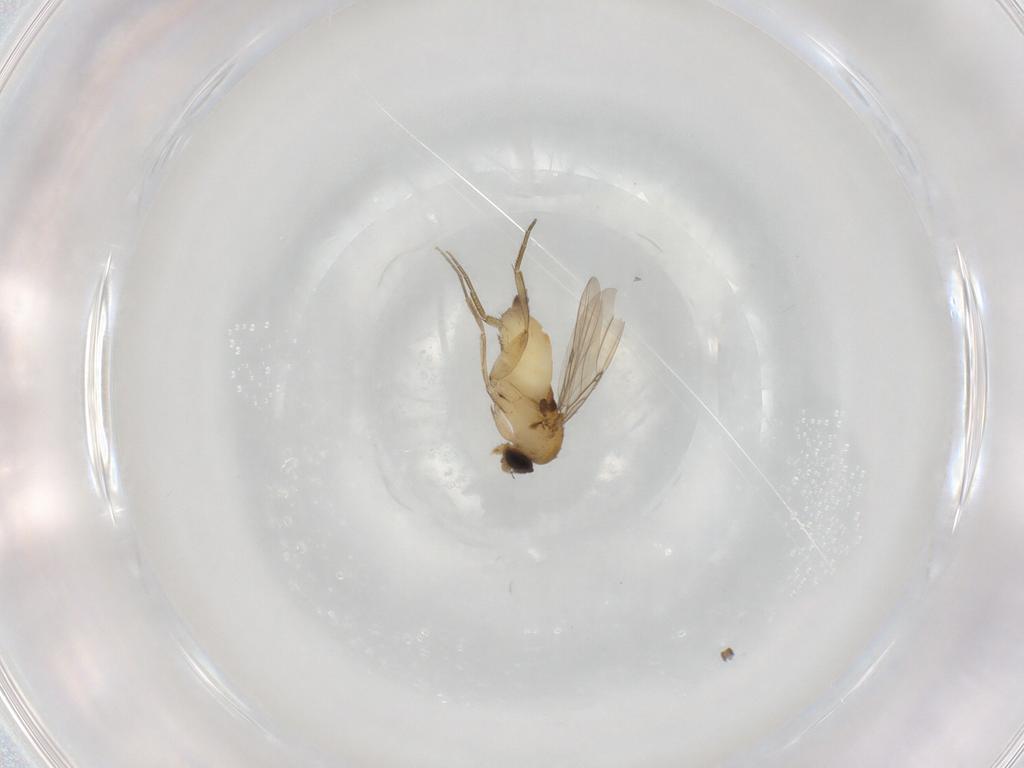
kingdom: Animalia
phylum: Arthropoda
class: Insecta
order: Diptera
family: Phoridae
